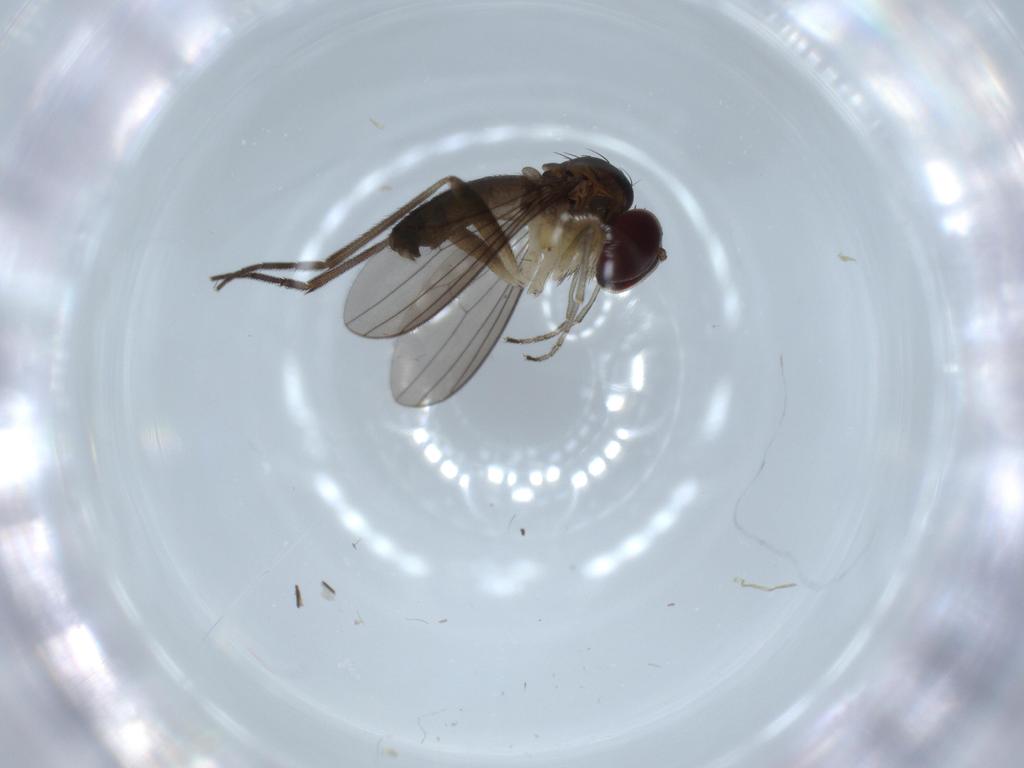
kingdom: Animalia
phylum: Arthropoda
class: Insecta
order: Diptera
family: Dolichopodidae
